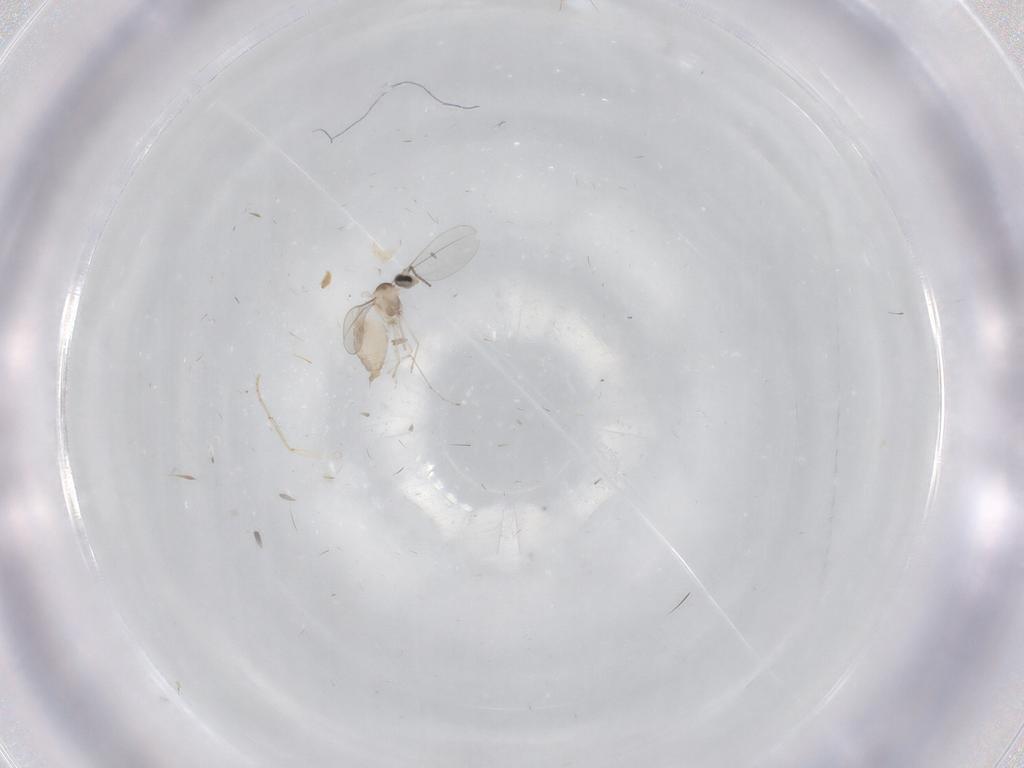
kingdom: Animalia
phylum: Arthropoda
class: Insecta
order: Diptera
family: Cecidomyiidae
